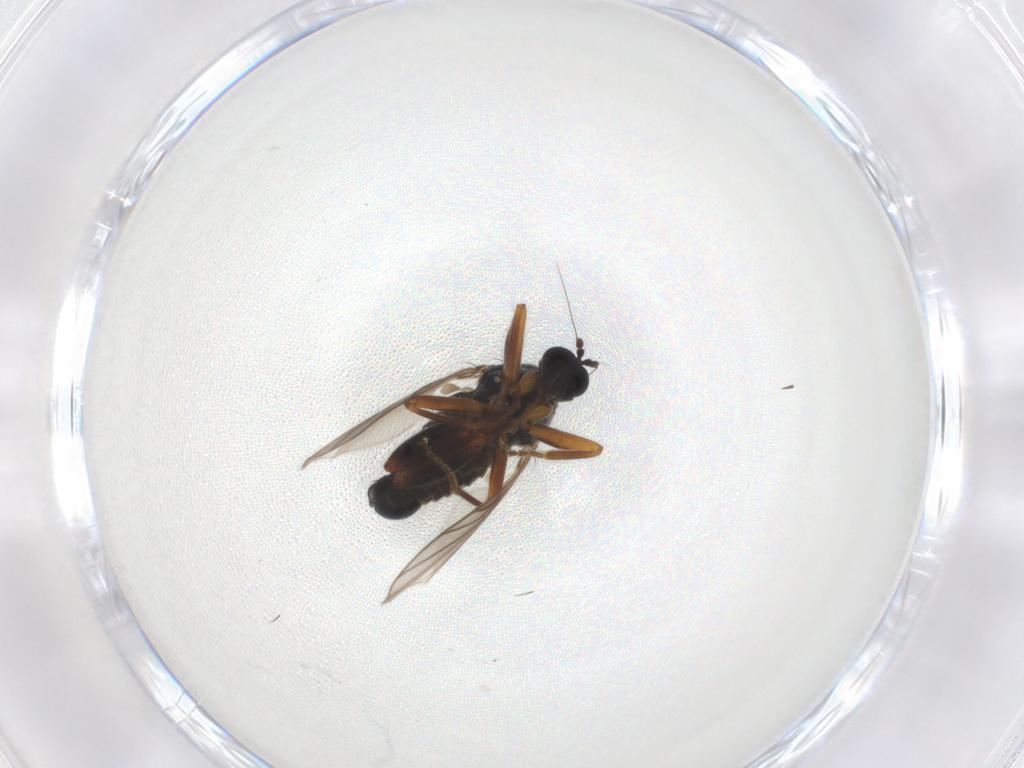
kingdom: Animalia
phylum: Arthropoda
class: Insecta
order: Diptera
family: Hybotidae
